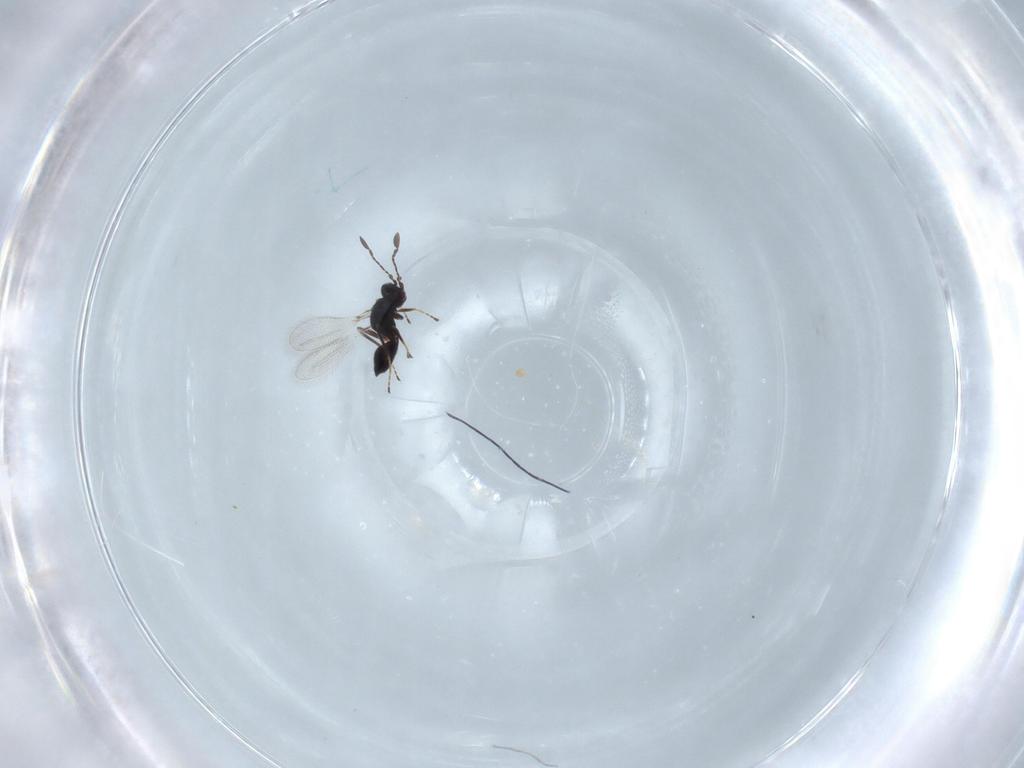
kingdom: Animalia
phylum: Arthropoda
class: Insecta
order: Hymenoptera
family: Mymaridae
